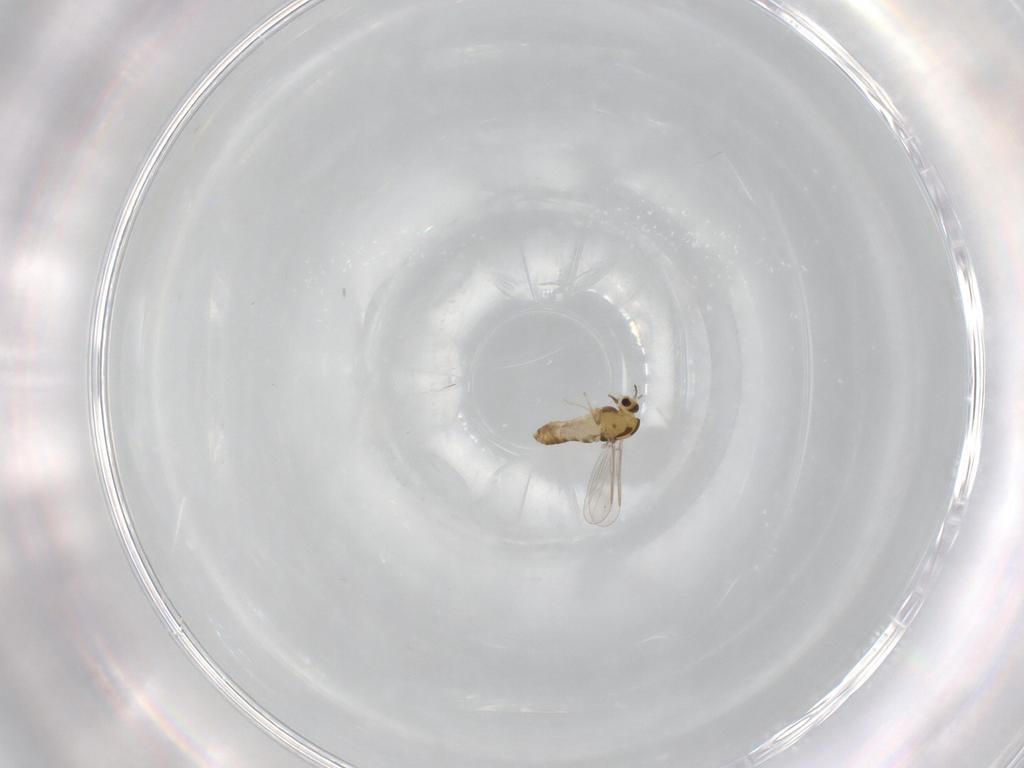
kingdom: Animalia
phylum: Arthropoda
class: Insecta
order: Diptera
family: Chironomidae
